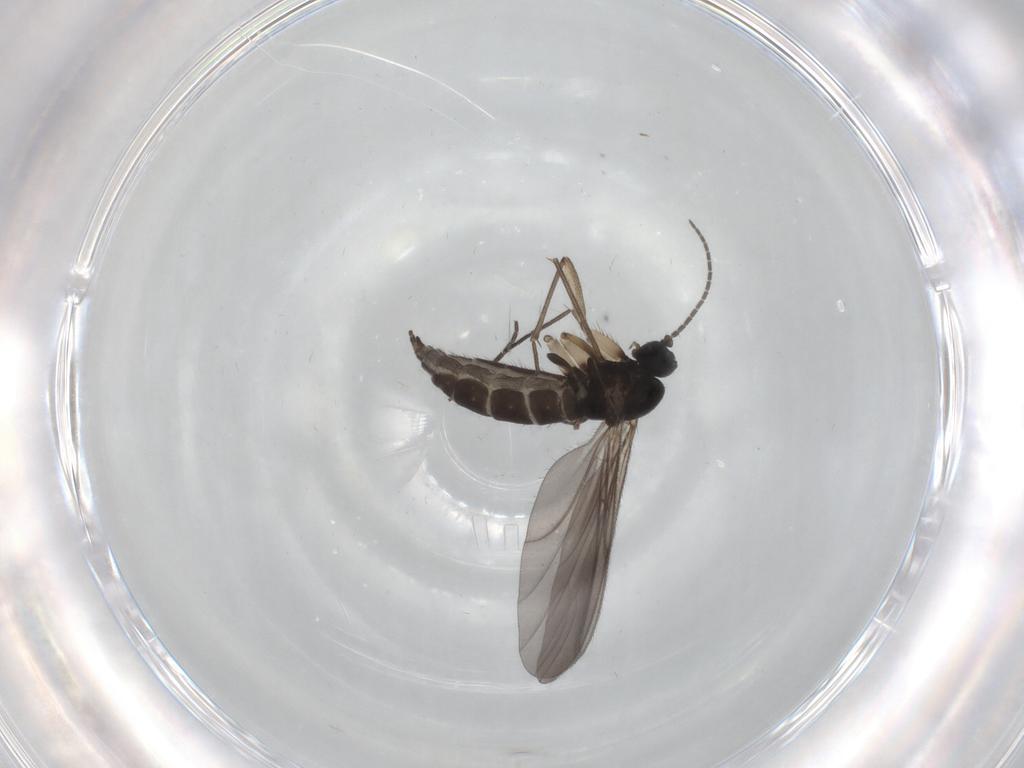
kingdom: Animalia
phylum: Arthropoda
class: Insecta
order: Diptera
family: Sciaridae
